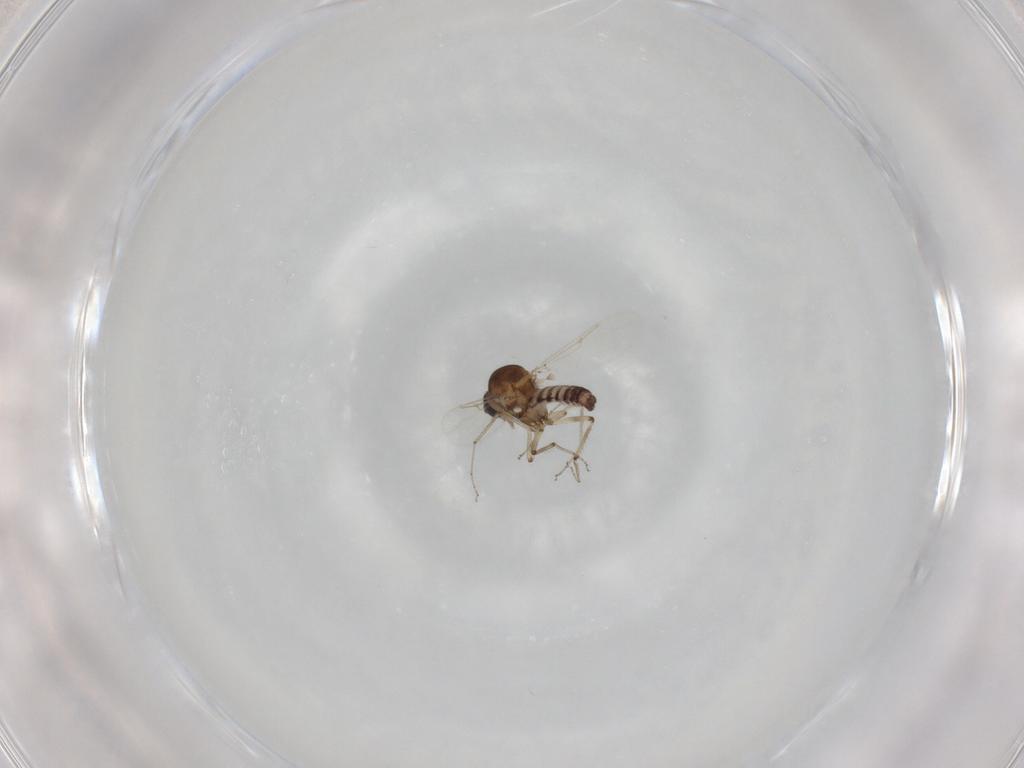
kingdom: Animalia
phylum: Arthropoda
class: Insecta
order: Diptera
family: Ceratopogonidae
